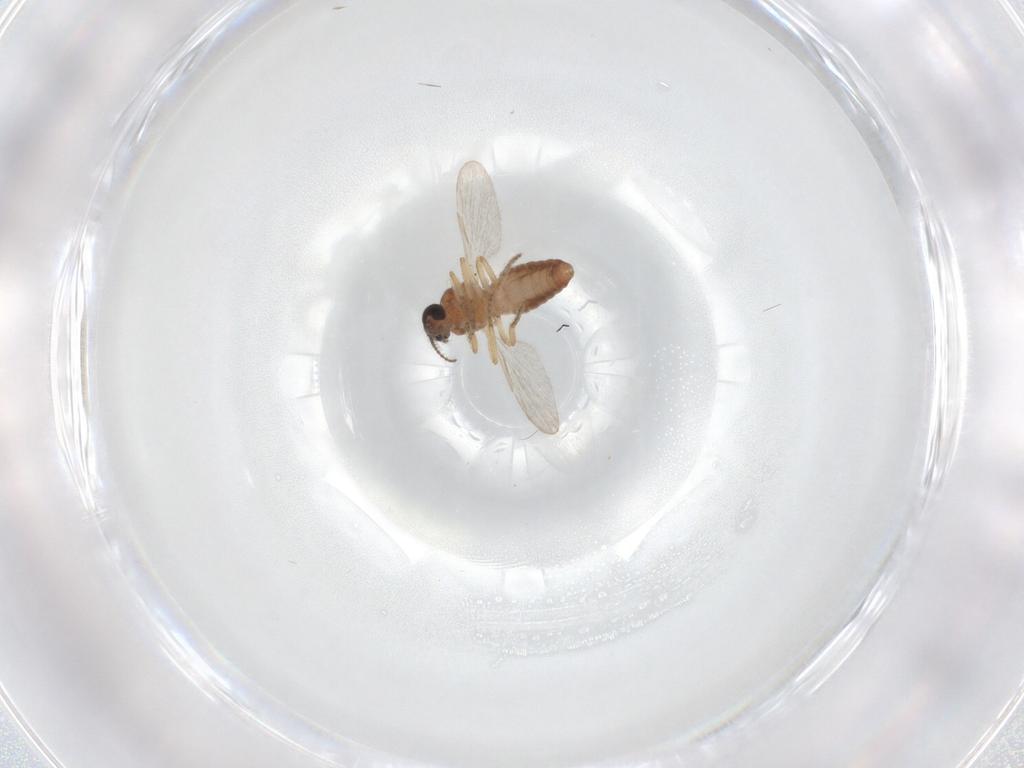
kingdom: Animalia
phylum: Arthropoda
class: Insecta
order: Diptera
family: Ceratopogonidae
